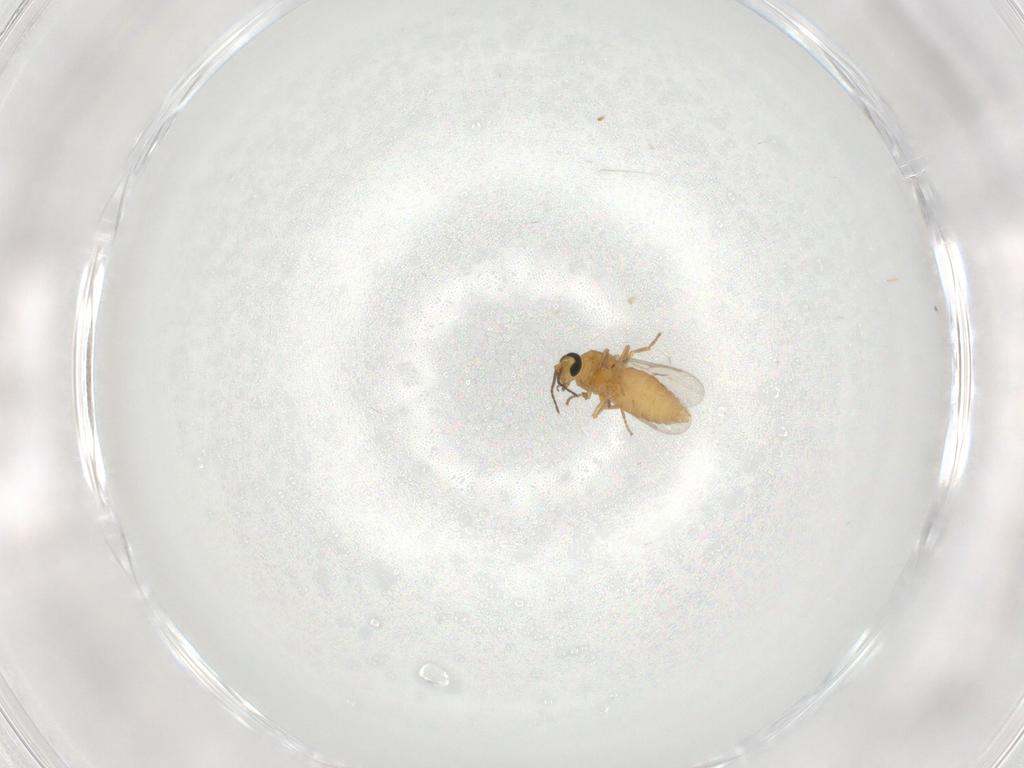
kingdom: Animalia
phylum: Arthropoda
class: Insecta
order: Diptera
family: Ceratopogonidae
